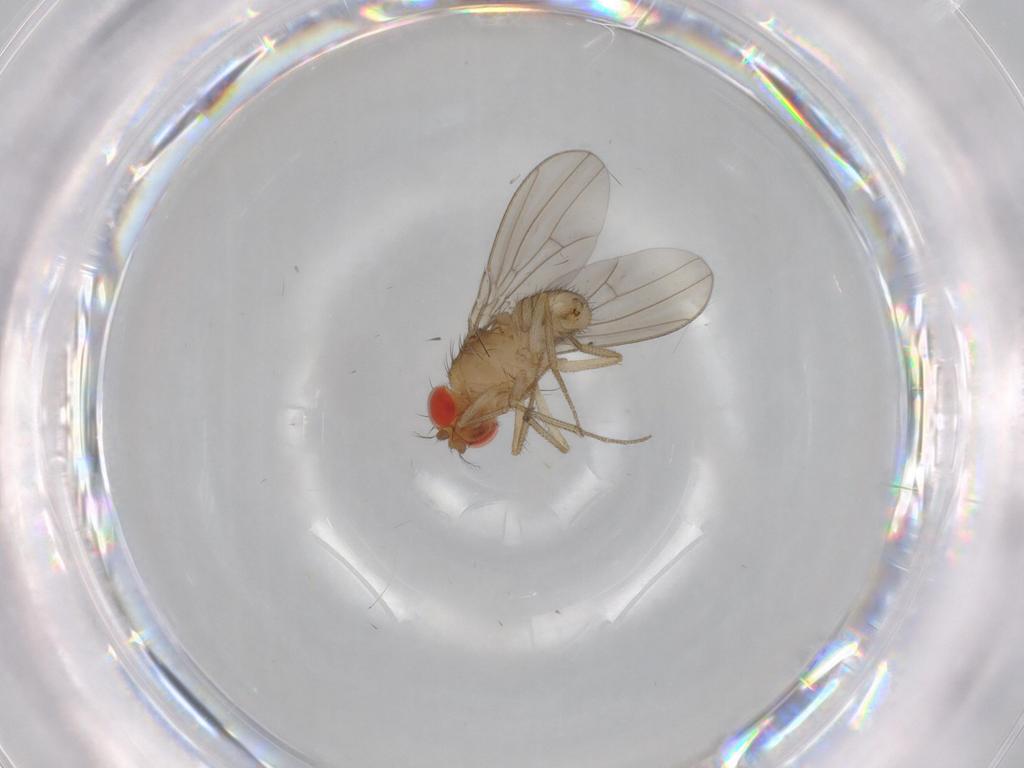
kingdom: Animalia
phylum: Arthropoda
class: Insecta
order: Diptera
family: Drosophilidae
